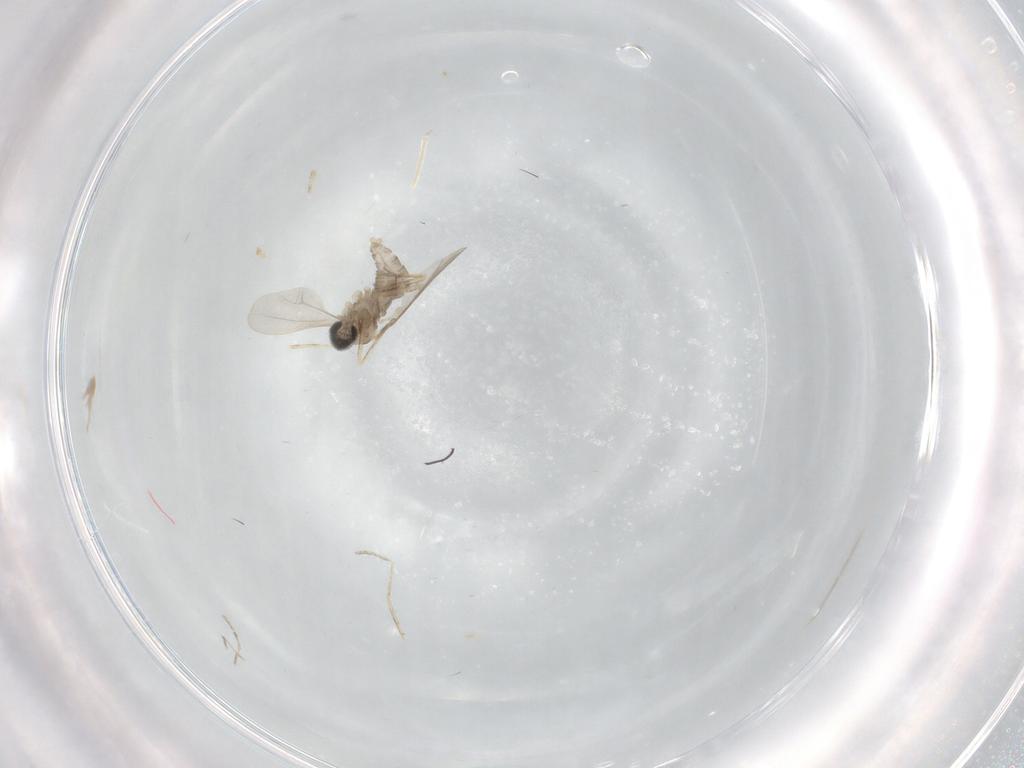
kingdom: Animalia
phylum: Arthropoda
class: Insecta
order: Diptera
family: Cecidomyiidae
